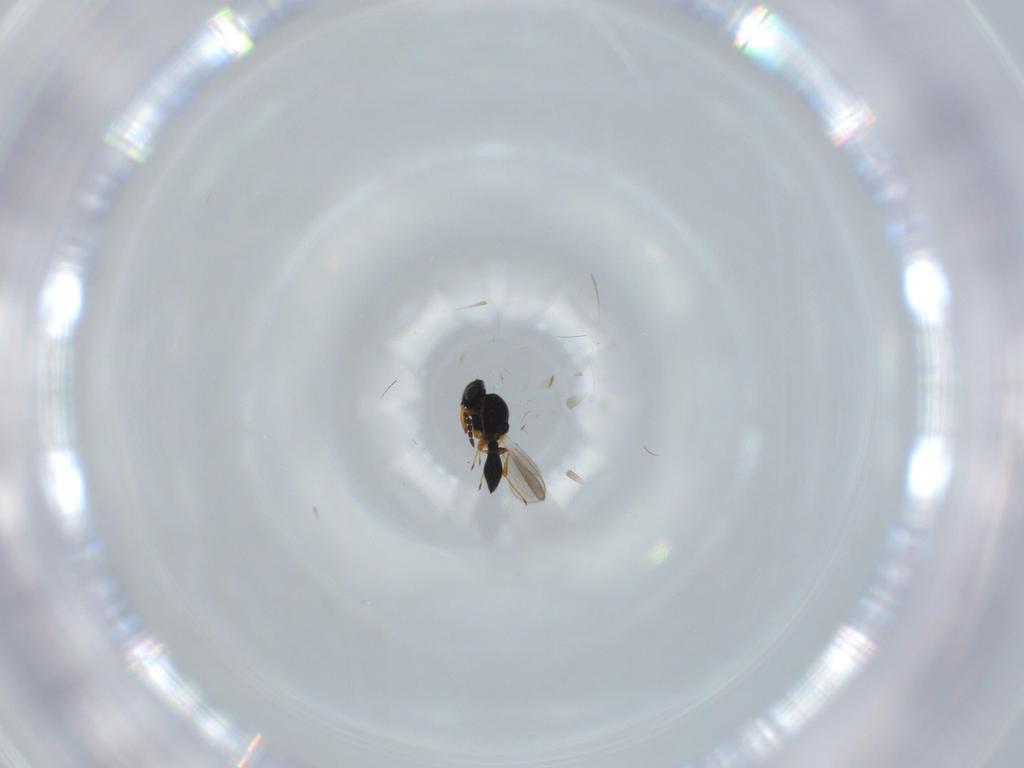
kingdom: Animalia
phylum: Arthropoda
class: Insecta
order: Hymenoptera
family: Platygastridae
